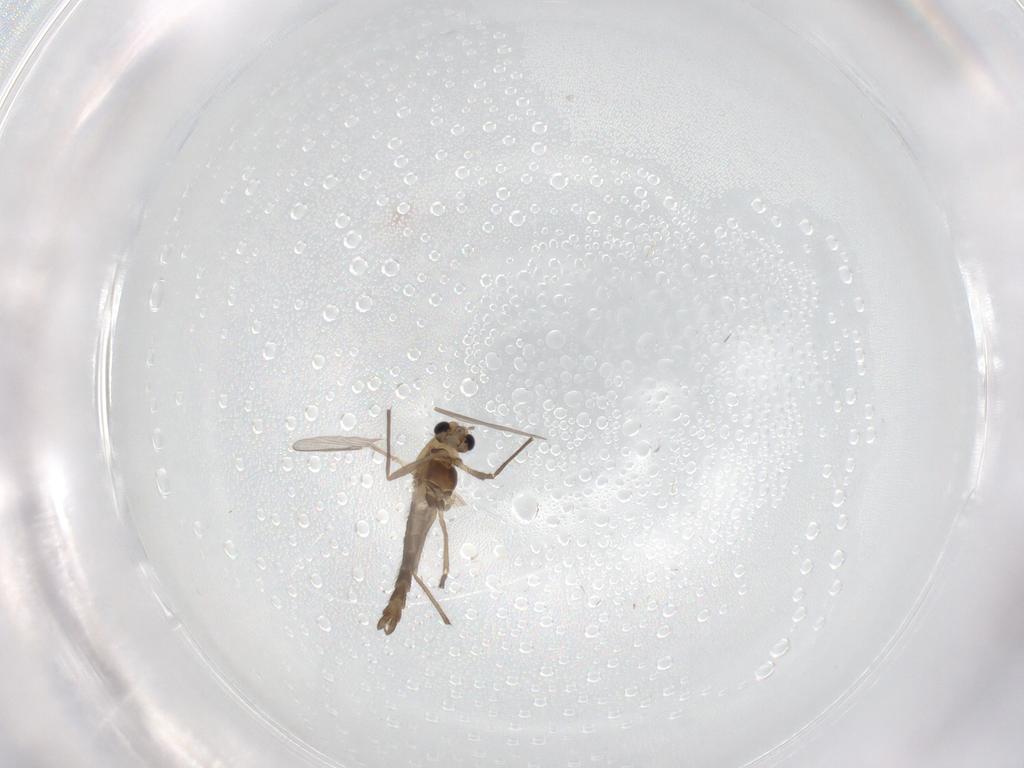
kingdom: Animalia
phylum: Arthropoda
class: Insecta
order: Diptera
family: Chironomidae
